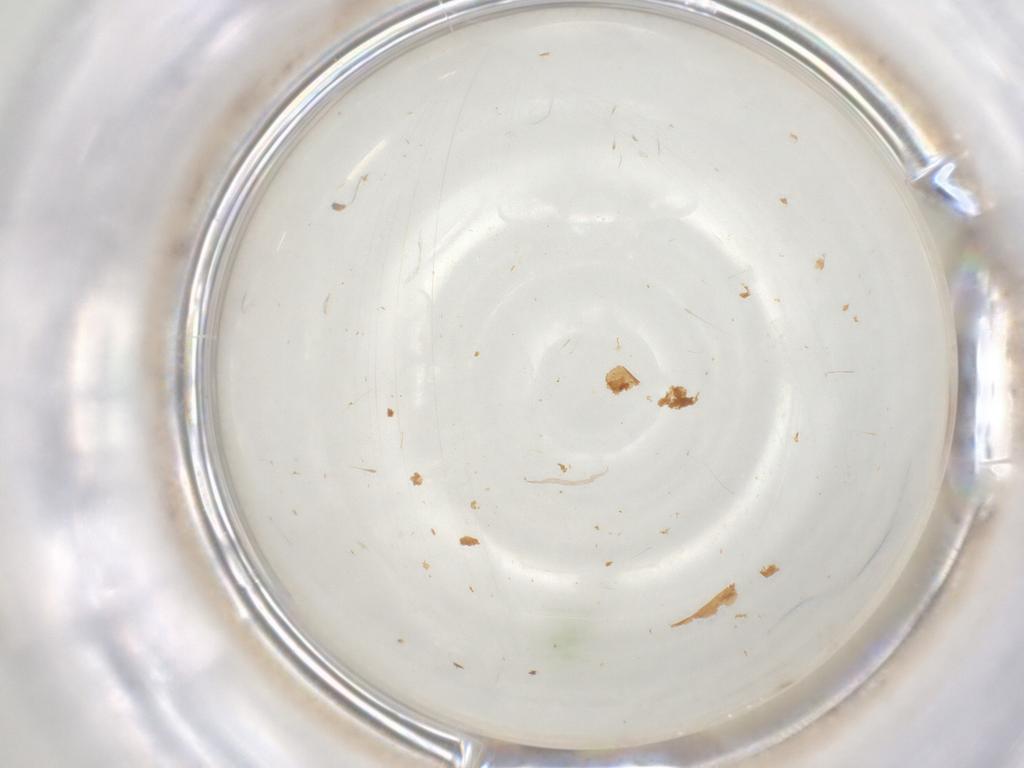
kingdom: Animalia
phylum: Arthropoda
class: Insecta
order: Diptera
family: Chironomidae
